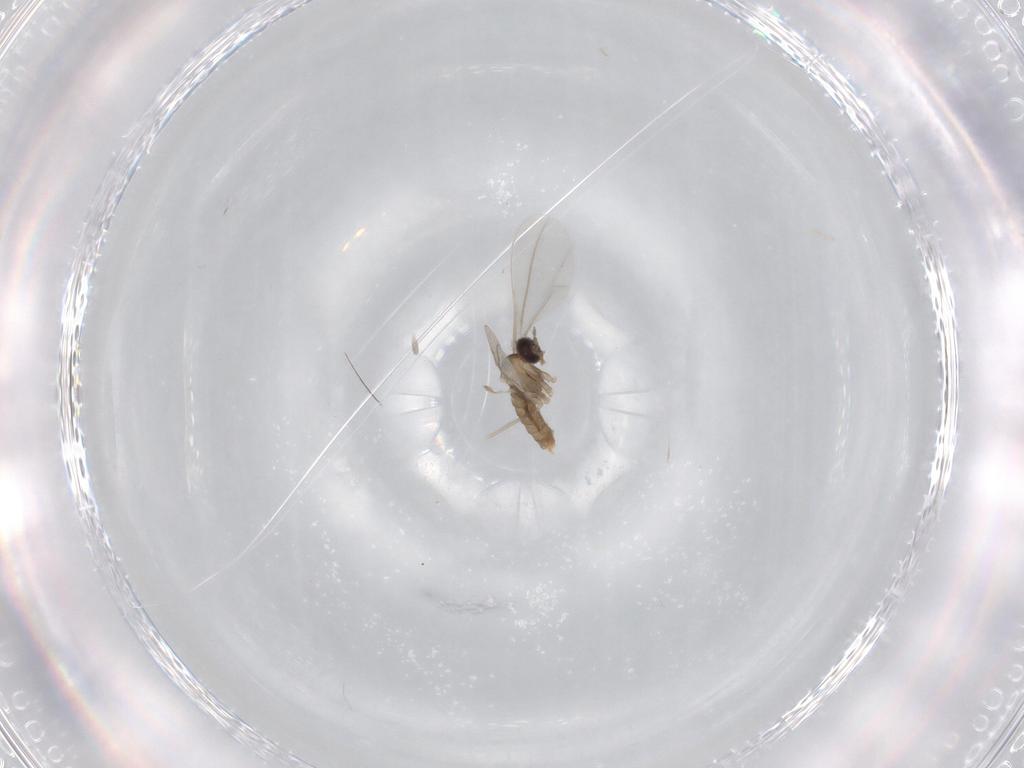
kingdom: Animalia
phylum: Arthropoda
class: Insecta
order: Diptera
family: Cecidomyiidae
